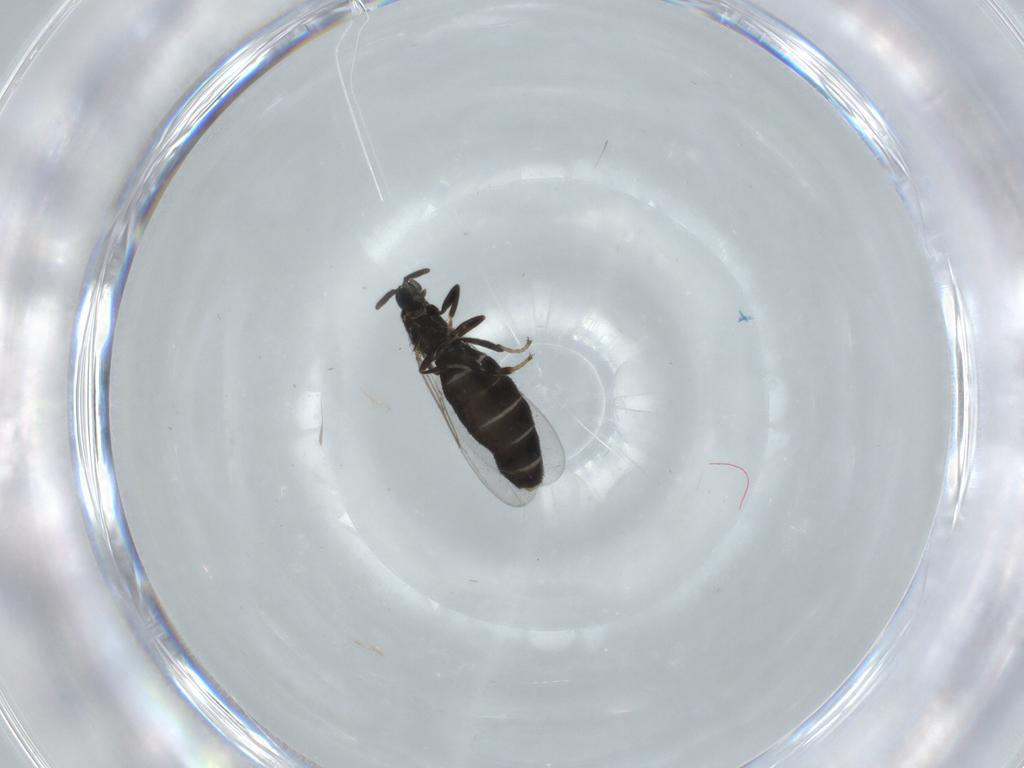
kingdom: Animalia
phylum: Arthropoda
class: Insecta
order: Diptera
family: Scatopsidae
